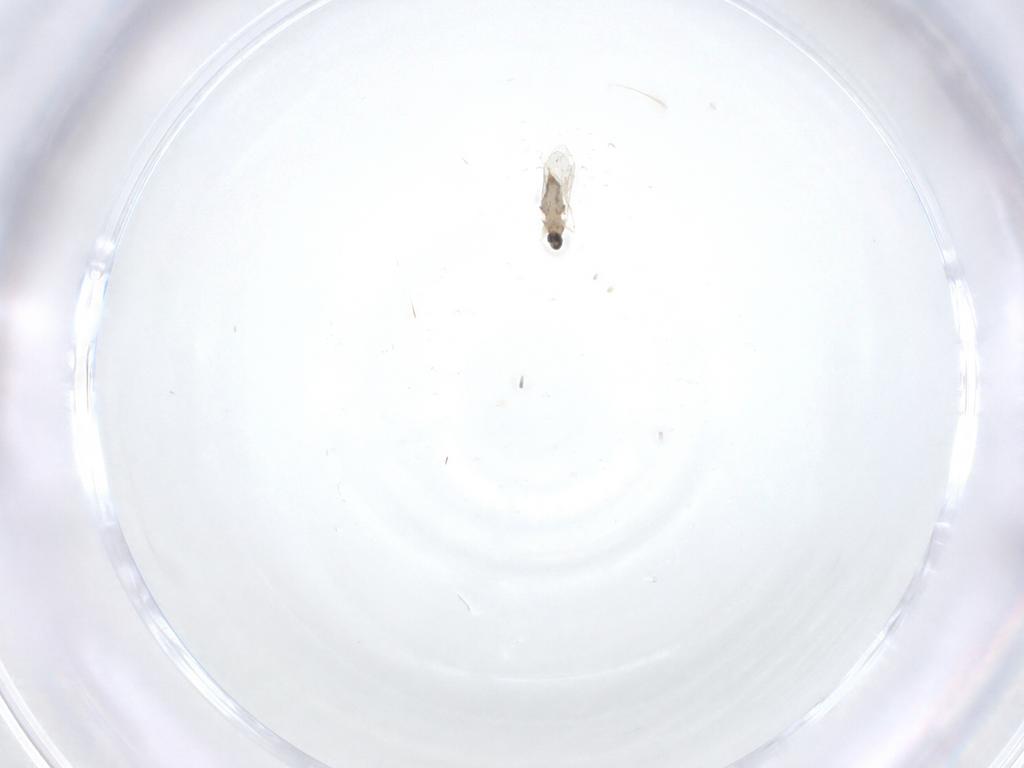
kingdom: Animalia
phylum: Arthropoda
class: Insecta
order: Diptera
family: Cecidomyiidae
